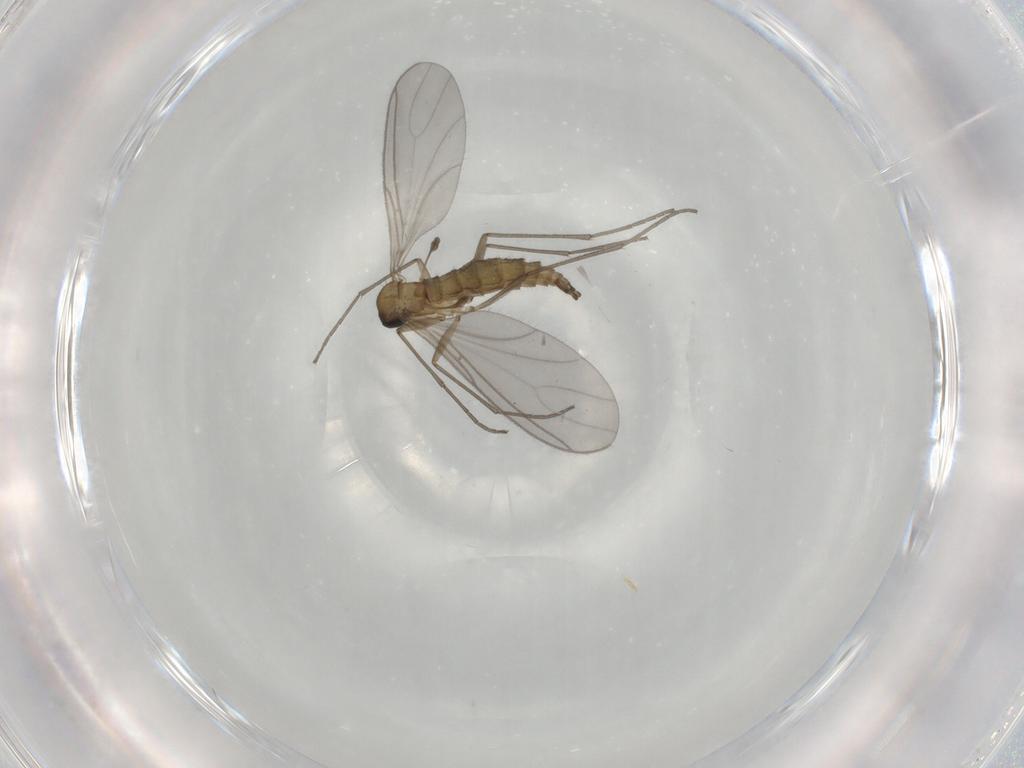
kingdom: Animalia
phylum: Arthropoda
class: Insecta
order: Diptera
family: Sciaridae
